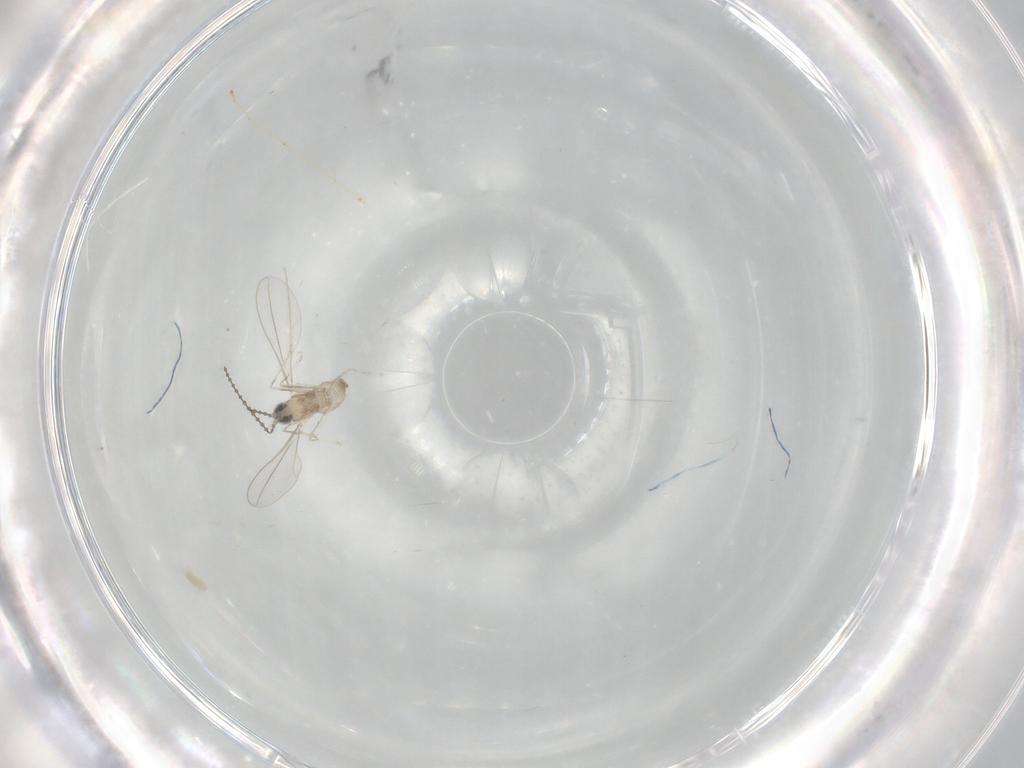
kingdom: Animalia
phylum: Arthropoda
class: Insecta
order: Diptera
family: Cecidomyiidae
